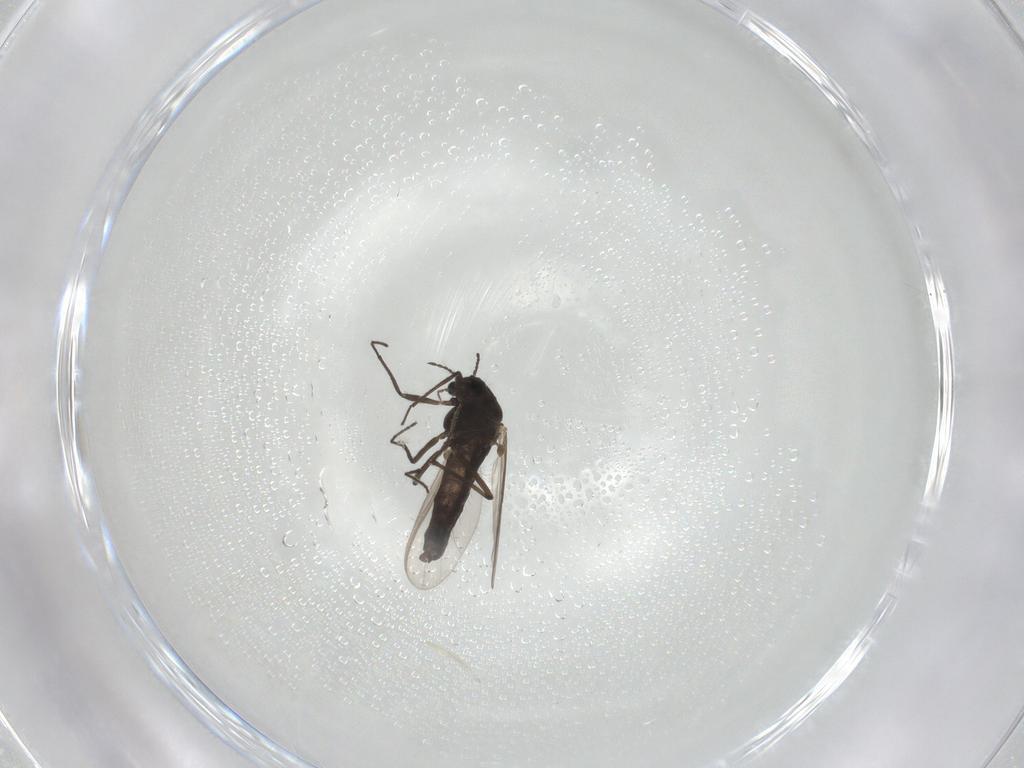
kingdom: Animalia
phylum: Arthropoda
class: Insecta
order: Diptera
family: Chironomidae
